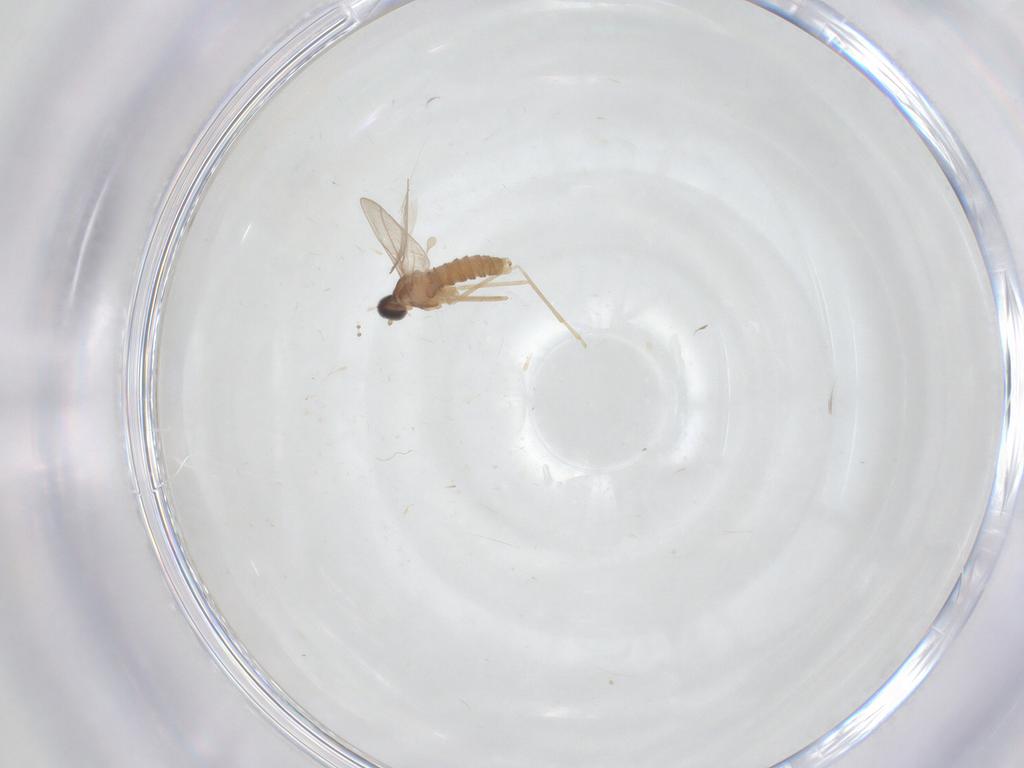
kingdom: Animalia
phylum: Arthropoda
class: Insecta
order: Diptera
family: Cecidomyiidae
